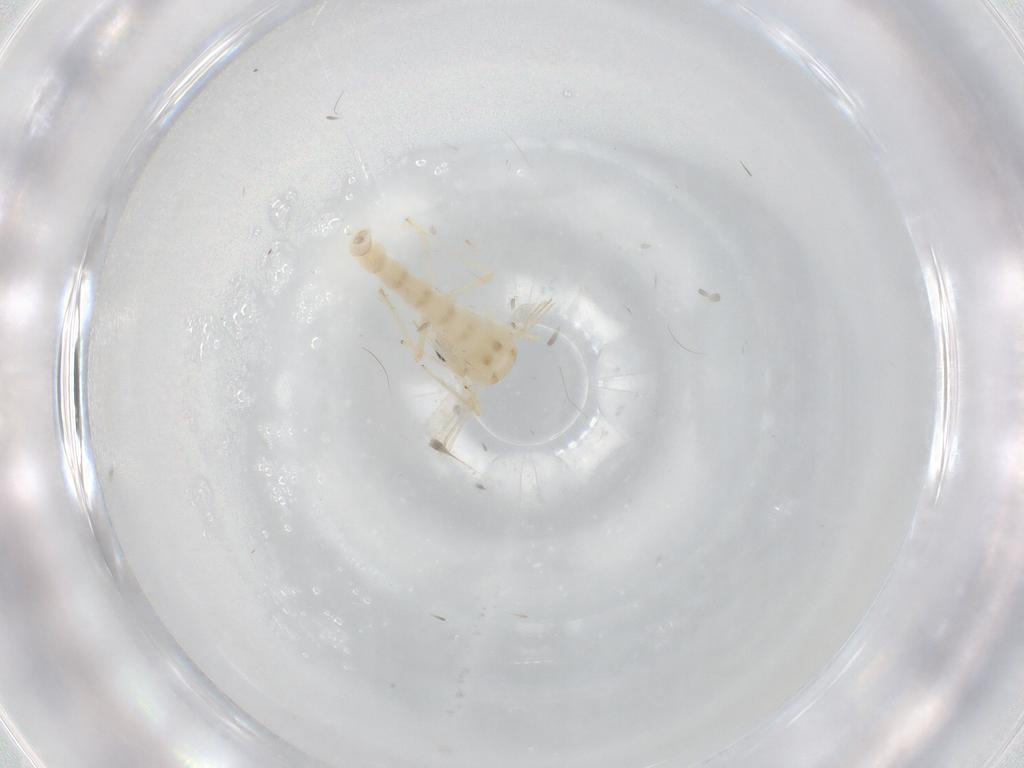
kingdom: Animalia
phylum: Arthropoda
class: Insecta
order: Diptera
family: Chironomidae
